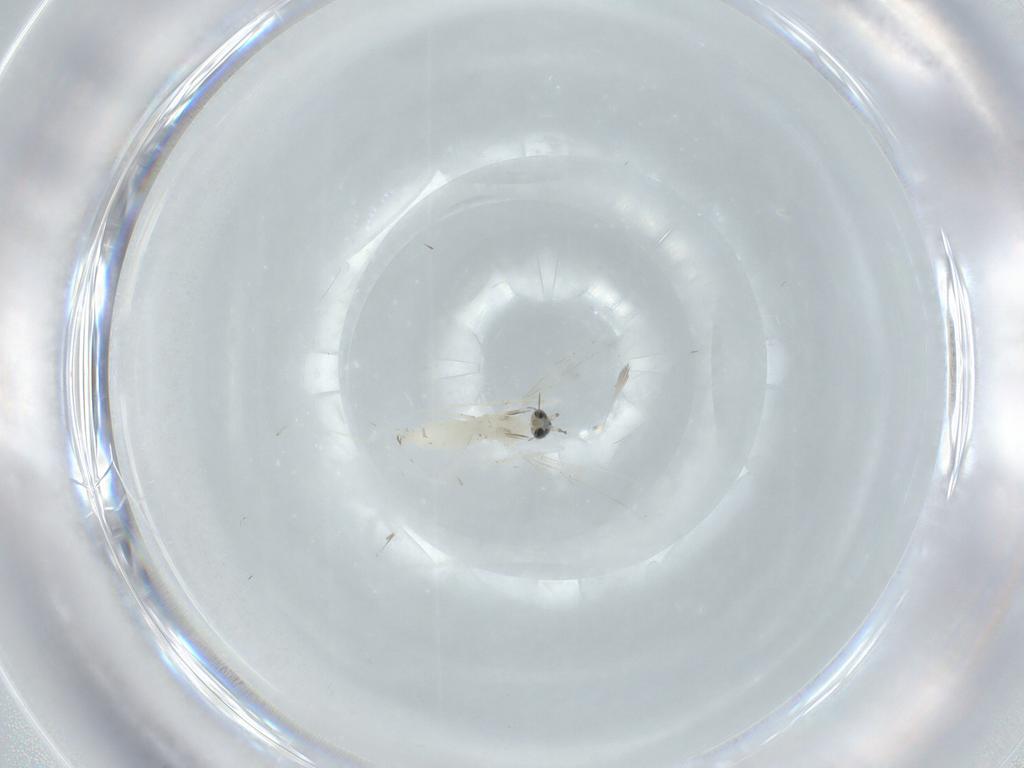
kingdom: Animalia
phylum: Arthropoda
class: Insecta
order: Diptera
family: Cecidomyiidae
